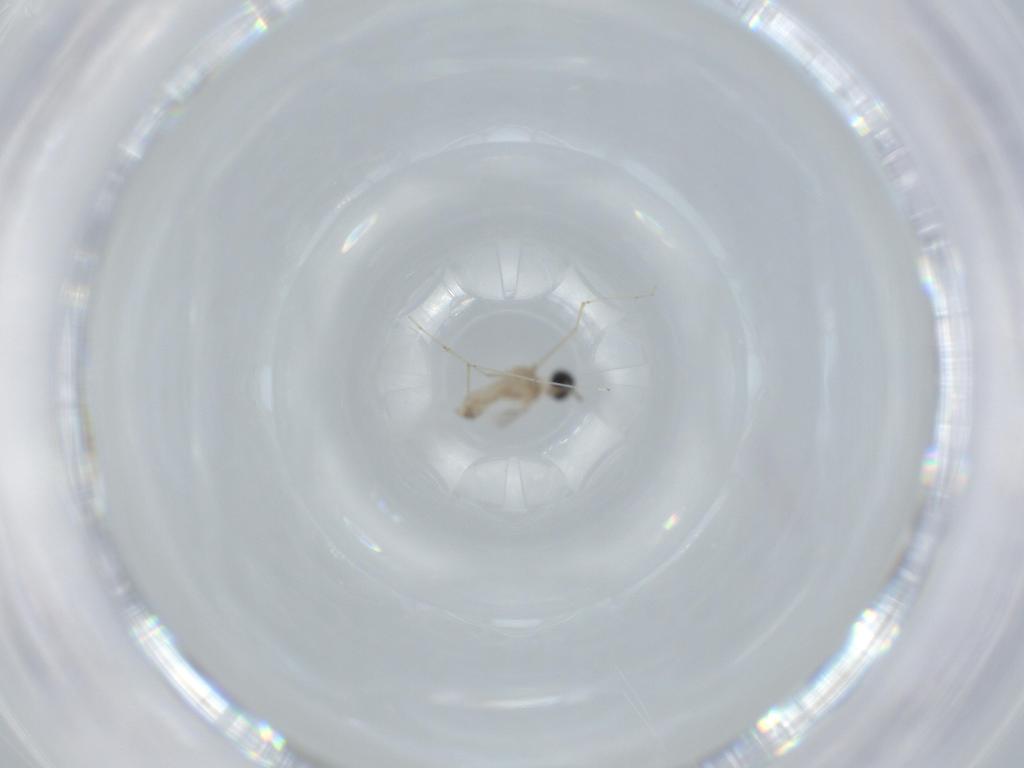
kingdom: Animalia
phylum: Arthropoda
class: Insecta
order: Diptera
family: Cecidomyiidae
